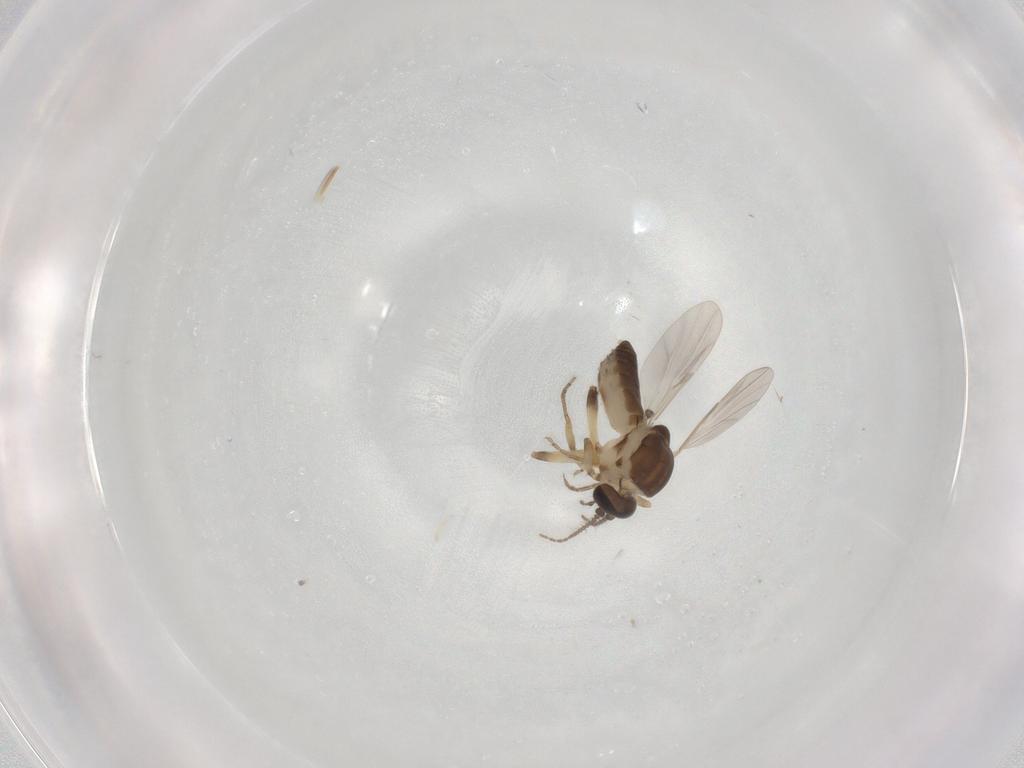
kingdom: Animalia
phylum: Arthropoda
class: Insecta
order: Diptera
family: Ceratopogonidae
